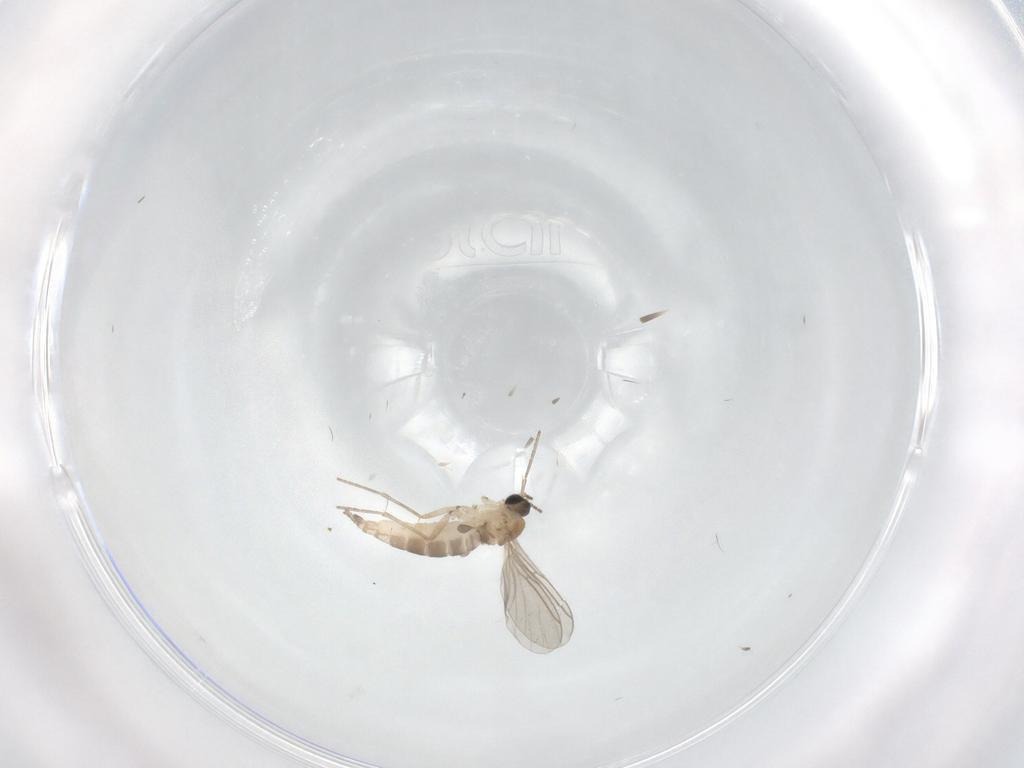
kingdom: Animalia
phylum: Arthropoda
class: Insecta
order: Diptera
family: Sciaridae
